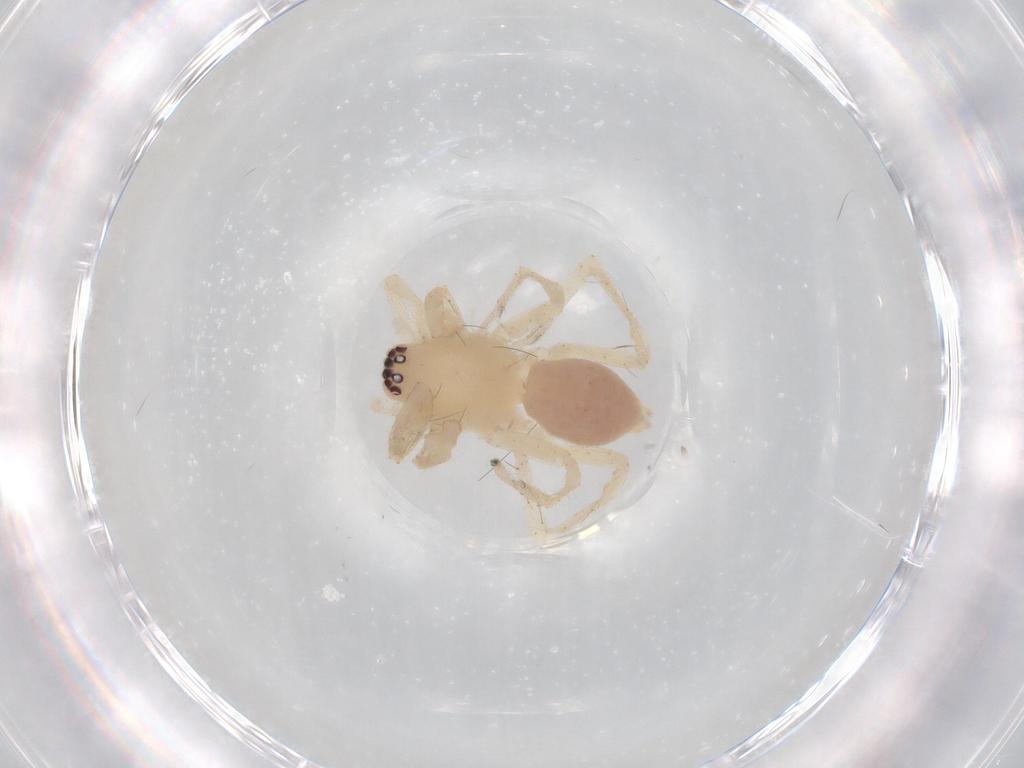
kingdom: Animalia
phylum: Arthropoda
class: Arachnida
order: Araneae
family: Clubionidae
